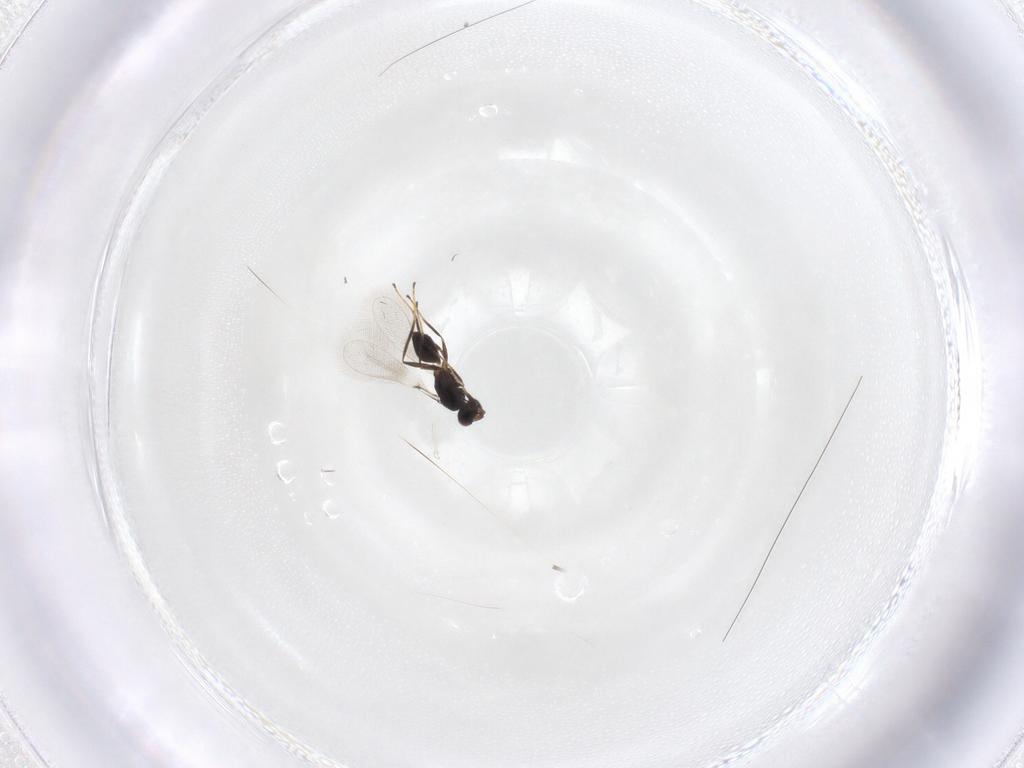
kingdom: Animalia
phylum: Arthropoda
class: Insecta
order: Hymenoptera
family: Mymaridae
